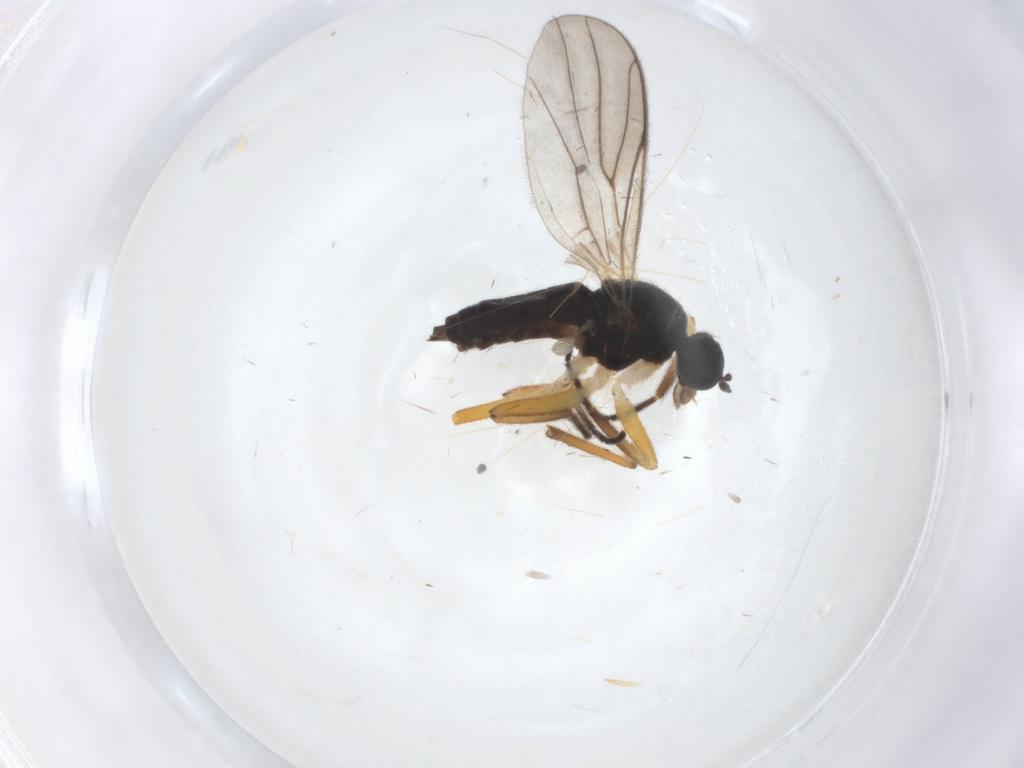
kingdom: Animalia
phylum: Arthropoda
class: Insecta
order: Diptera
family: Hybotidae
